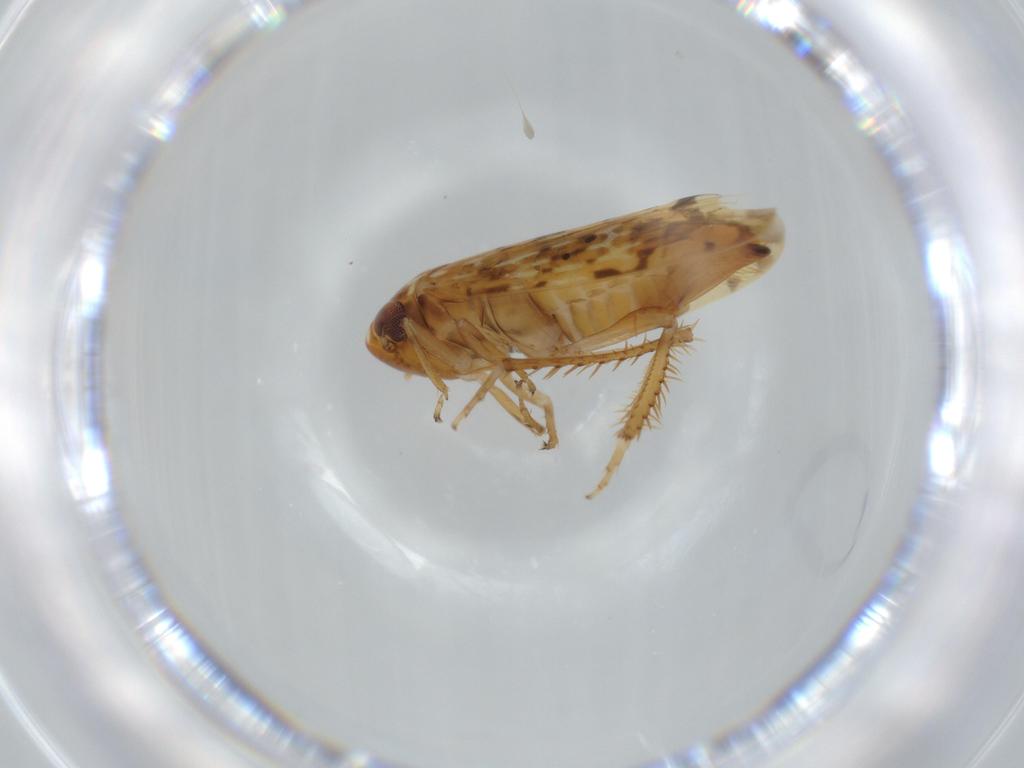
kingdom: Animalia
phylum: Arthropoda
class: Insecta
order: Hemiptera
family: Cicadellidae
